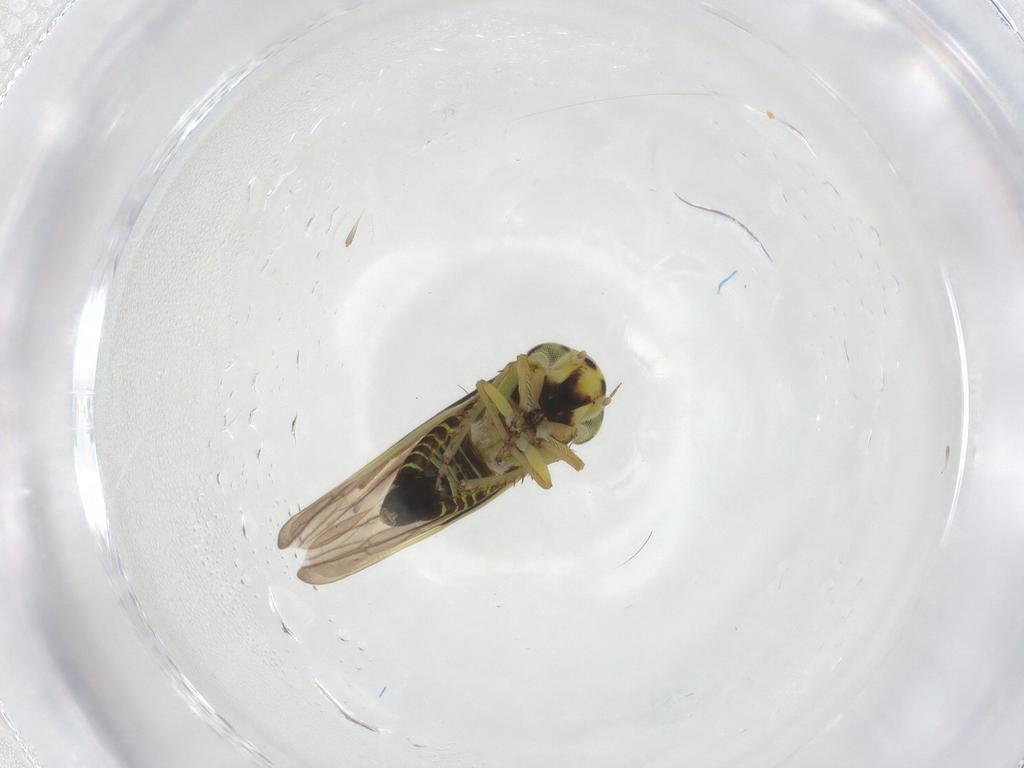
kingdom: Animalia
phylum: Arthropoda
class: Insecta
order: Hemiptera
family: Cicadellidae
